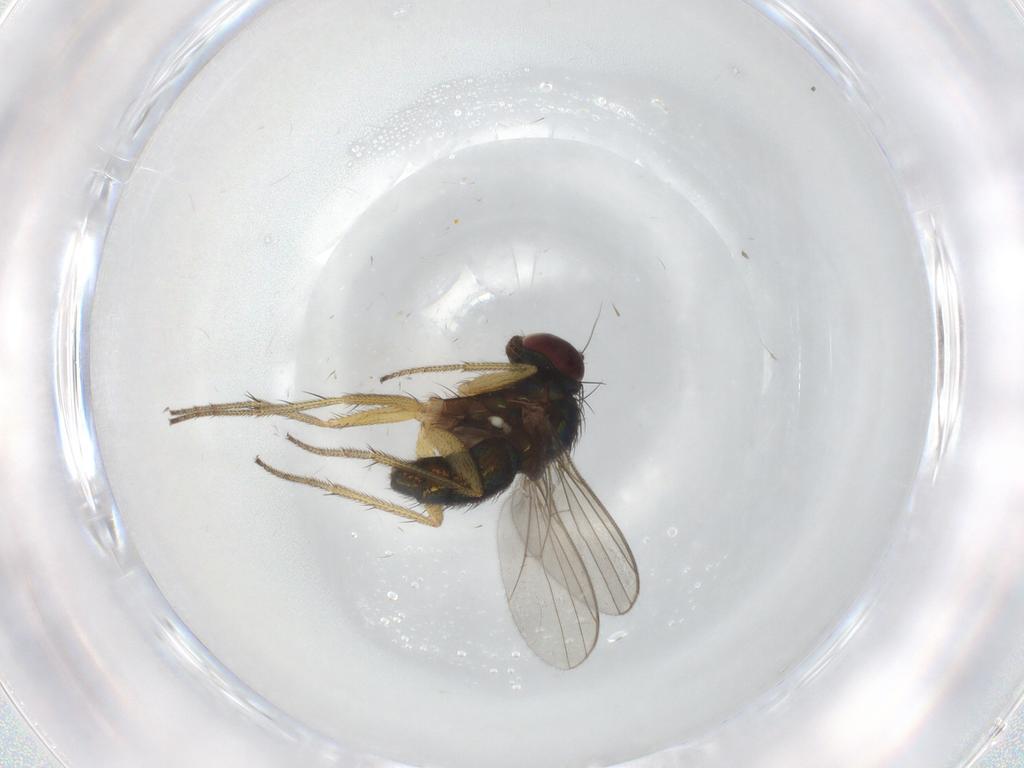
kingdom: Animalia
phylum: Arthropoda
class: Insecta
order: Diptera
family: Dolichopodidae
